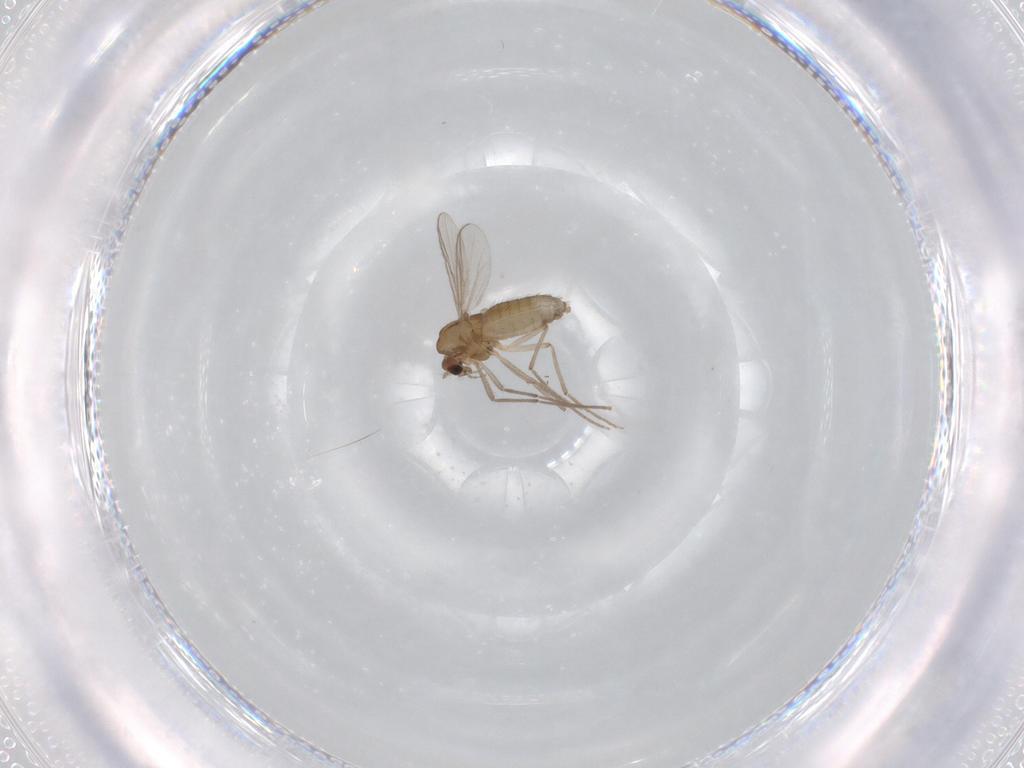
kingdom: Animalia
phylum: Arthropoda
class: Insecta
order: Diptera
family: Chironomidae
